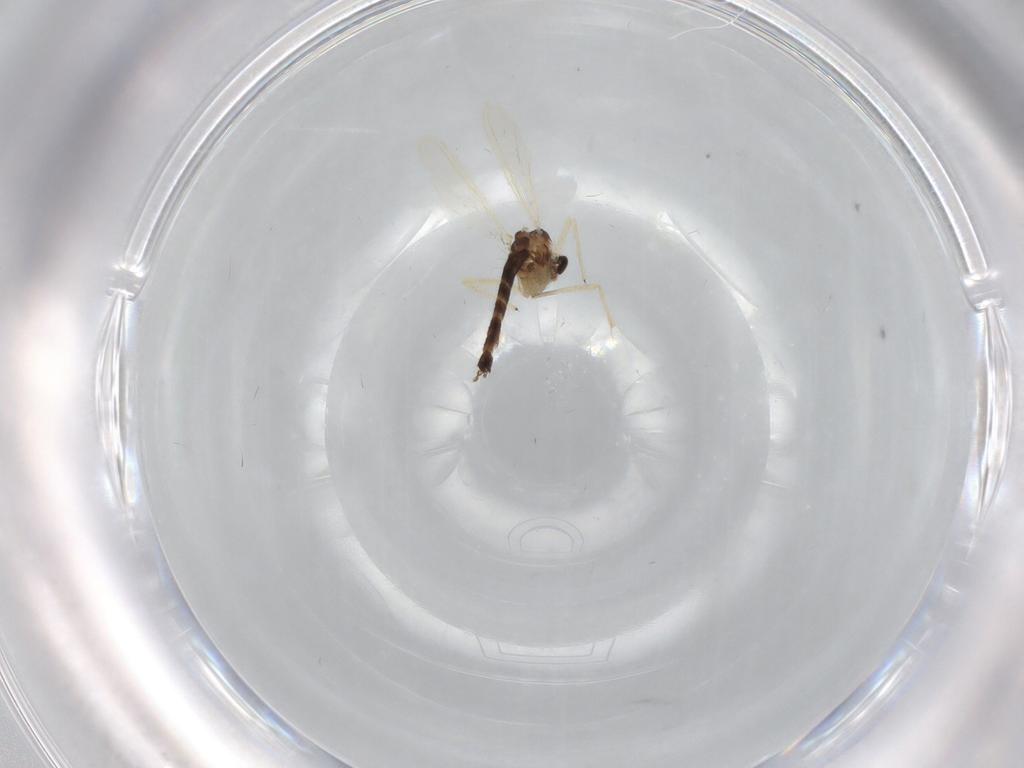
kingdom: Animalia
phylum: Arthropoda
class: Insecta
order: Diptera
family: Chironomidae
